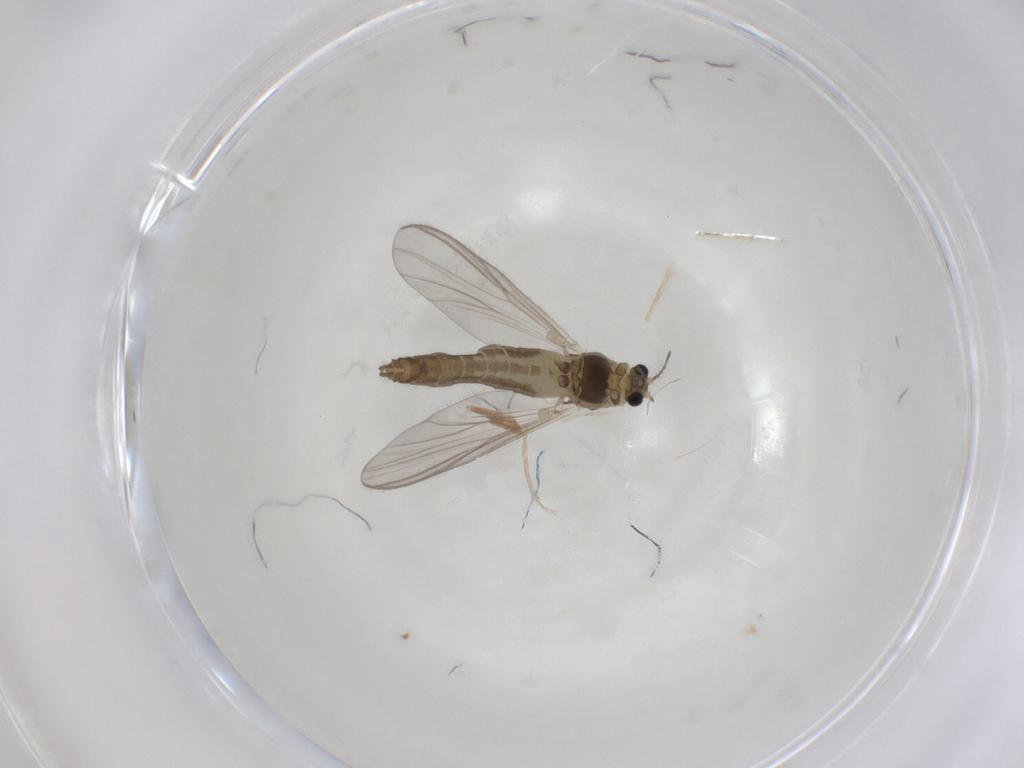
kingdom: Animalia
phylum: Arthropoda
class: Insecta
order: Diptera
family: Chironomidae
